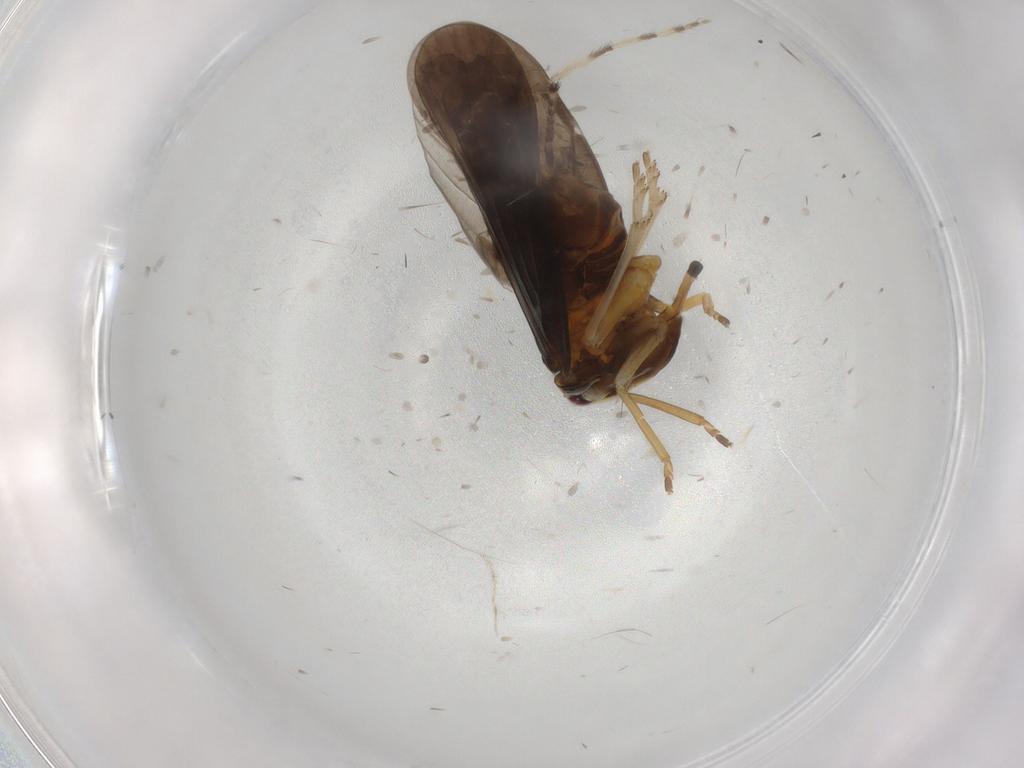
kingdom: Animalia
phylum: Arthropoda
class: Insecta
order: Hemiptera
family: Derbidae
